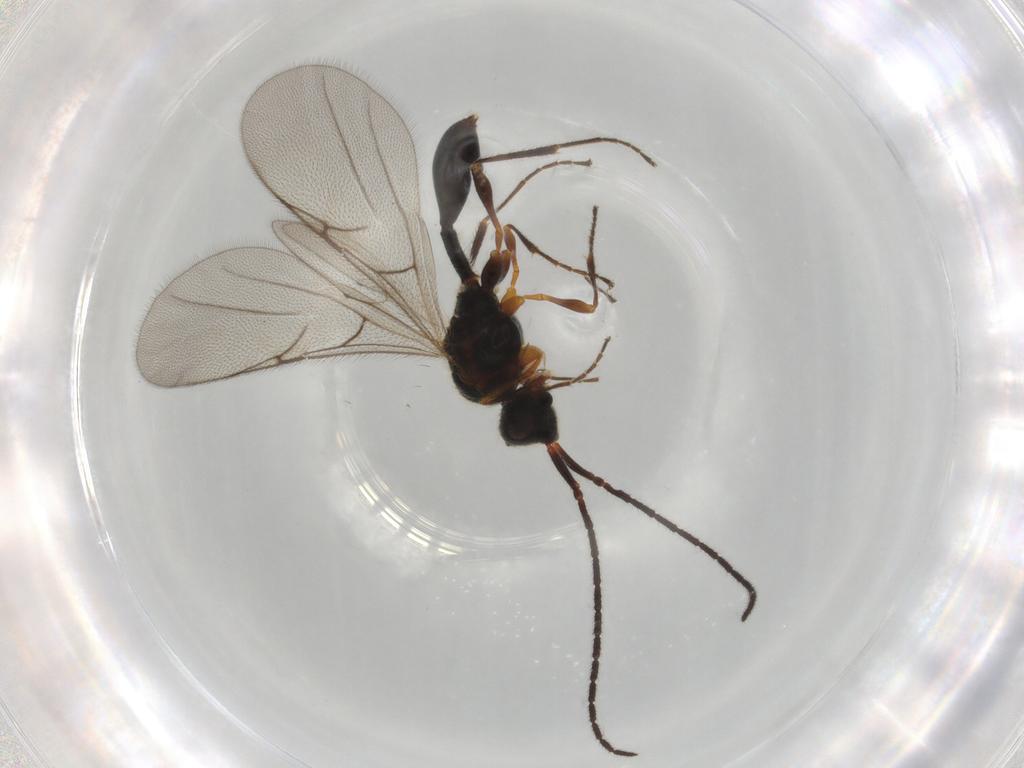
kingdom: Animalia
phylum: Arthropoda
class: Insecta
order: Hymenoptera
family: Diapriidae
